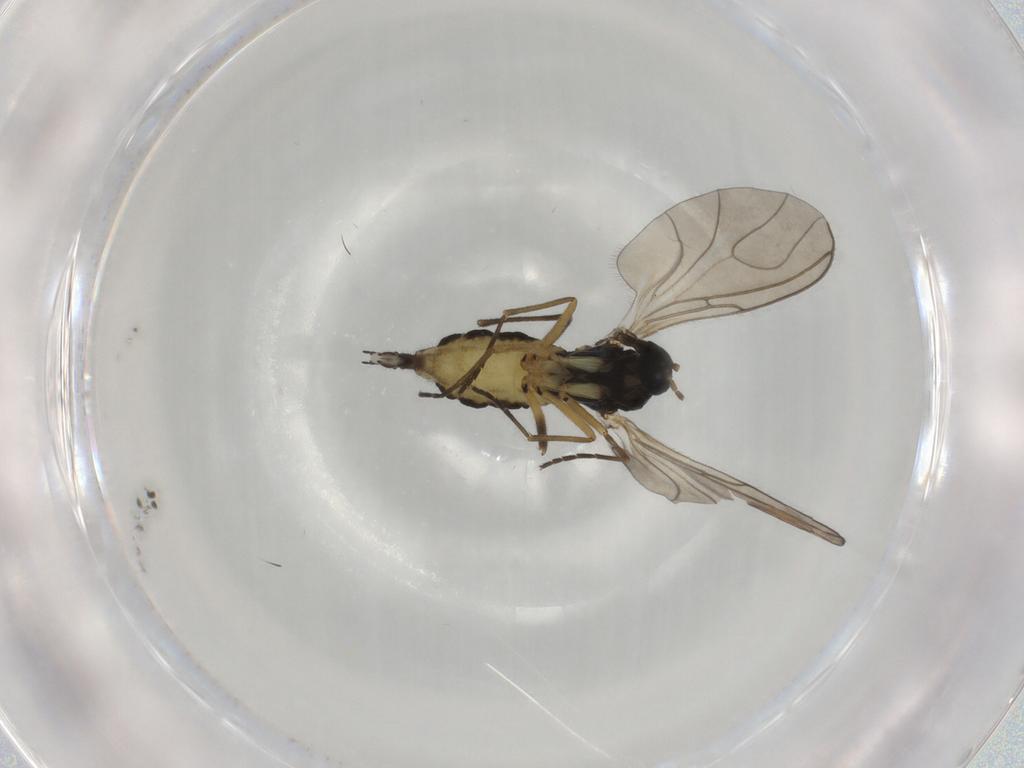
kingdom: Animalia
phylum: Arthropoda
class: Insecta
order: Diptera
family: Sciaridae
